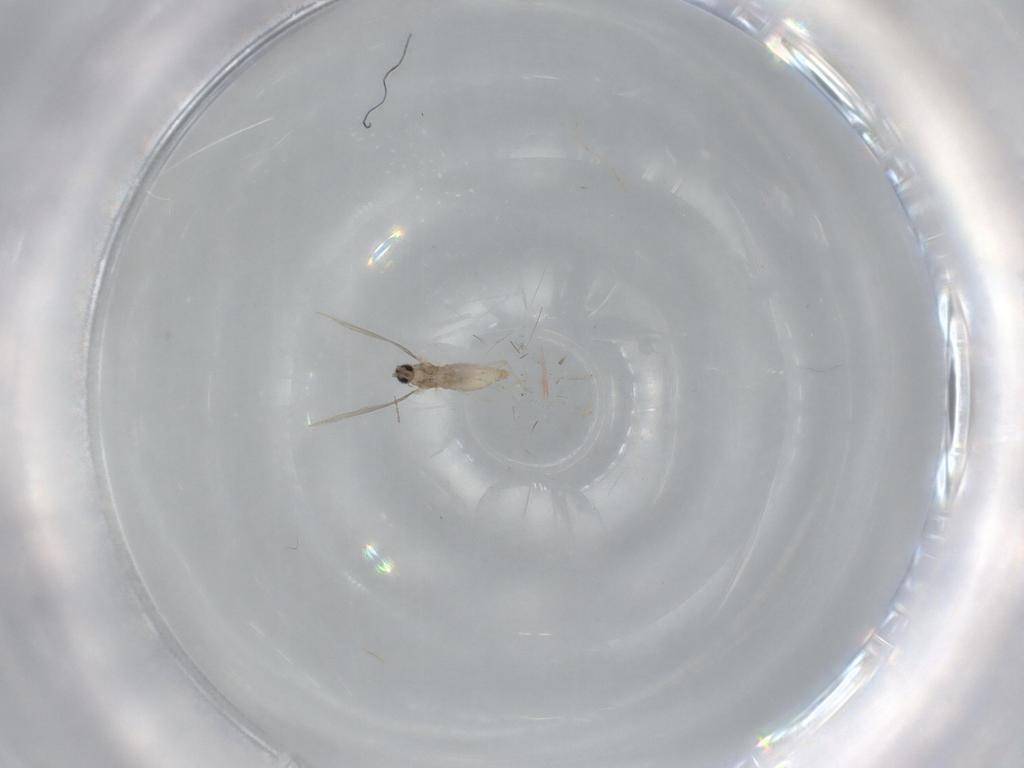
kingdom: Animalia
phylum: Arthropoda
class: Insecta
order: Diptera
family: Cecidomyiidae
